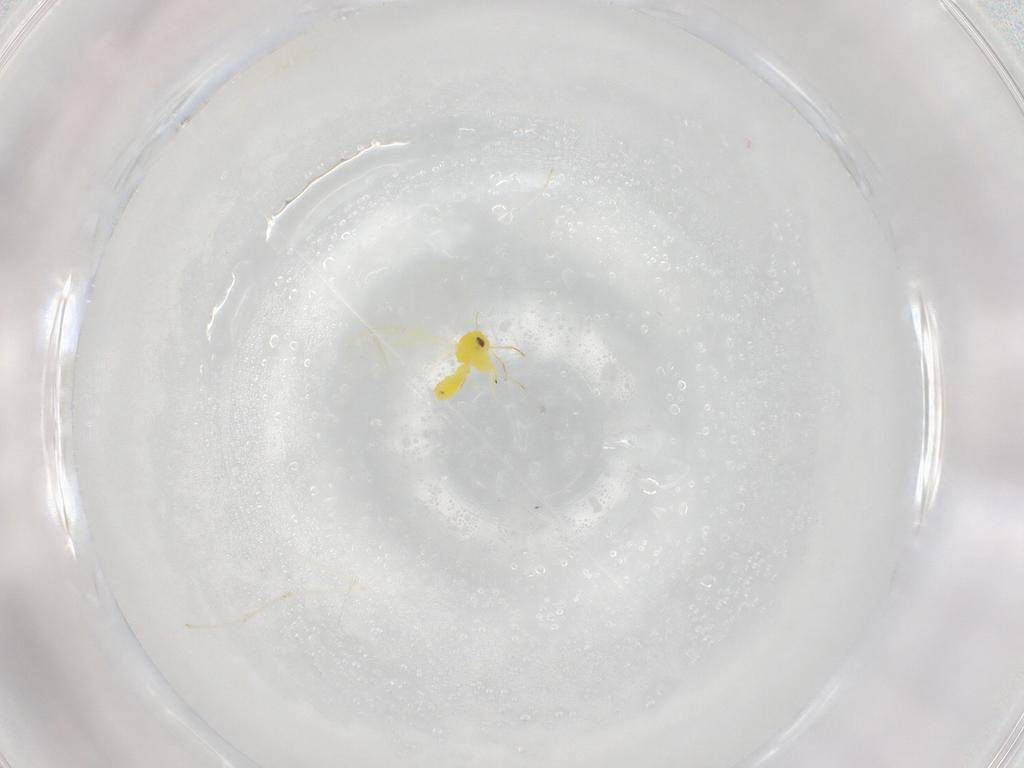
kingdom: Animalia
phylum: Arthropoda
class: Insecta
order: Hemiptera
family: Aleyrodidae
